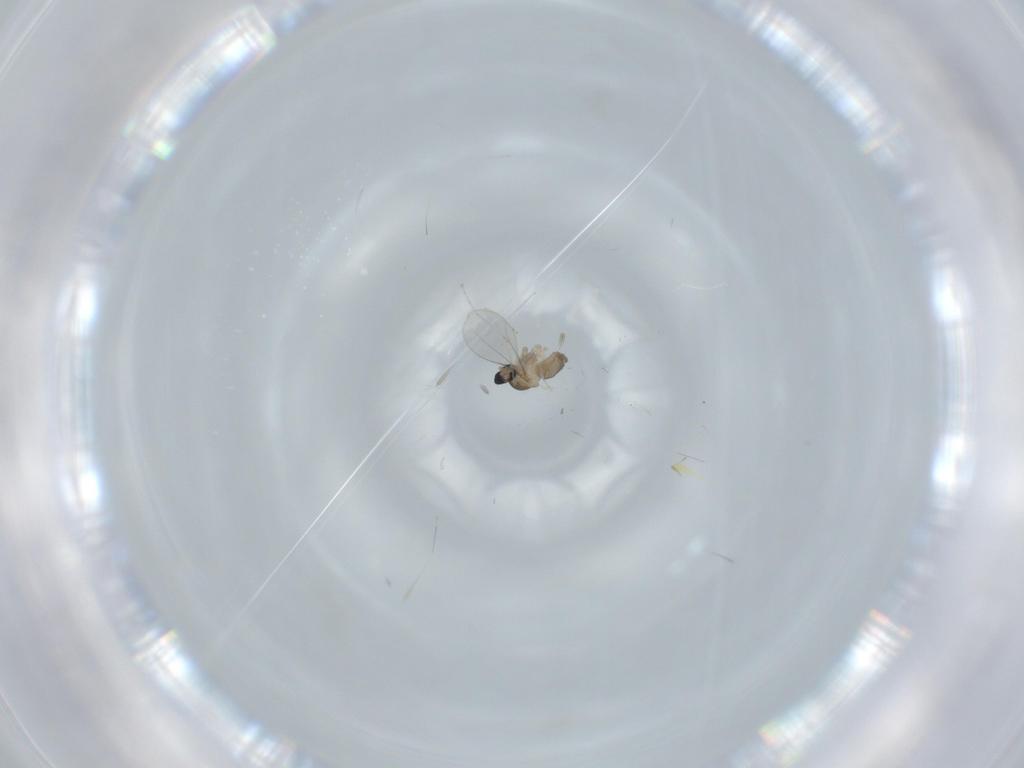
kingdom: Animalia
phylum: Arthropoda
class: Insecta
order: Diptera
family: Cecidomyiidae
